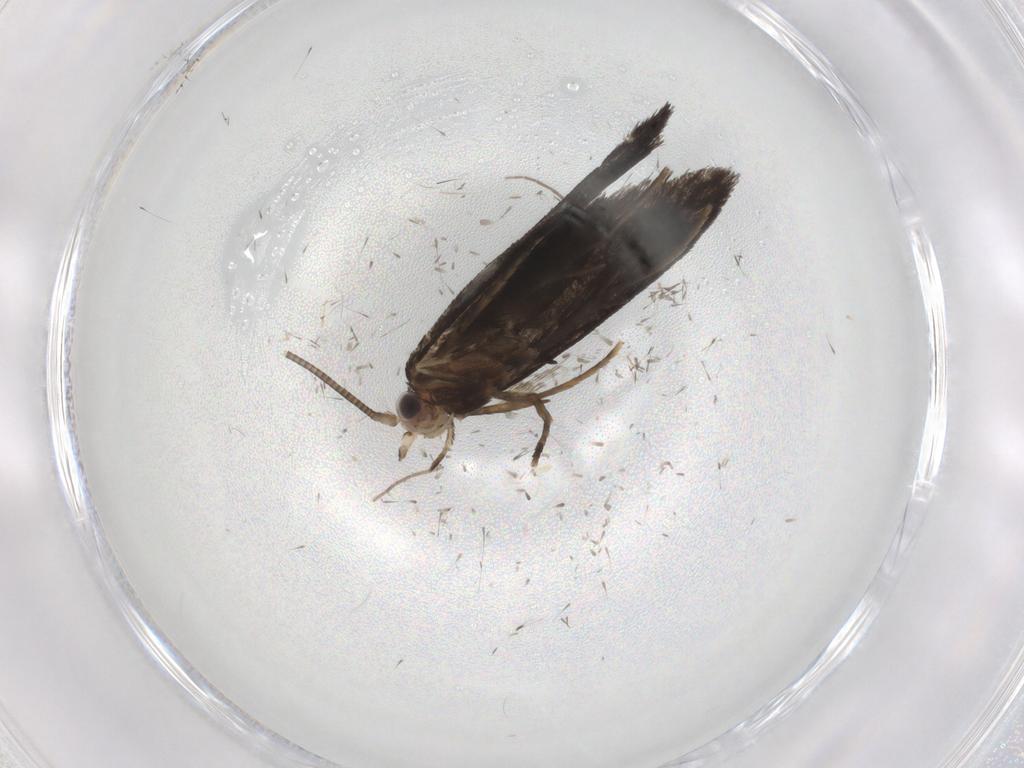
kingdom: Animalia
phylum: Arthropoda
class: Insecta
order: Lepidoptera
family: Nepticulidae
